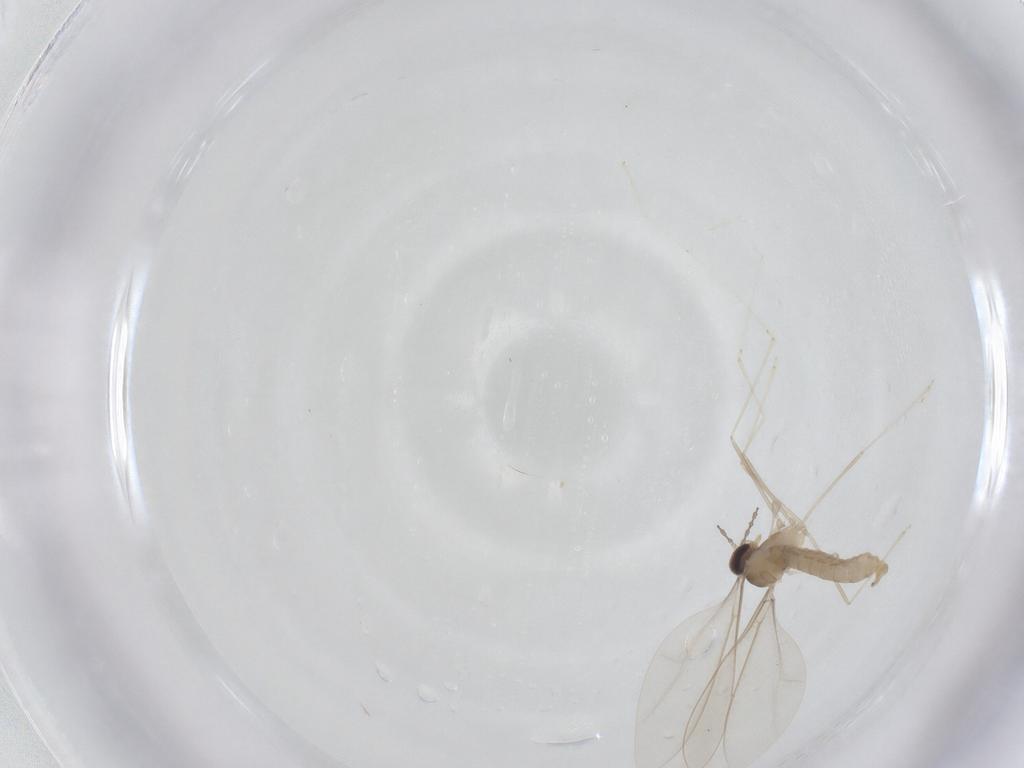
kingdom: Animalia
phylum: Arthropoda
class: Insecta
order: Diptera
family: Cecidomyiidae
